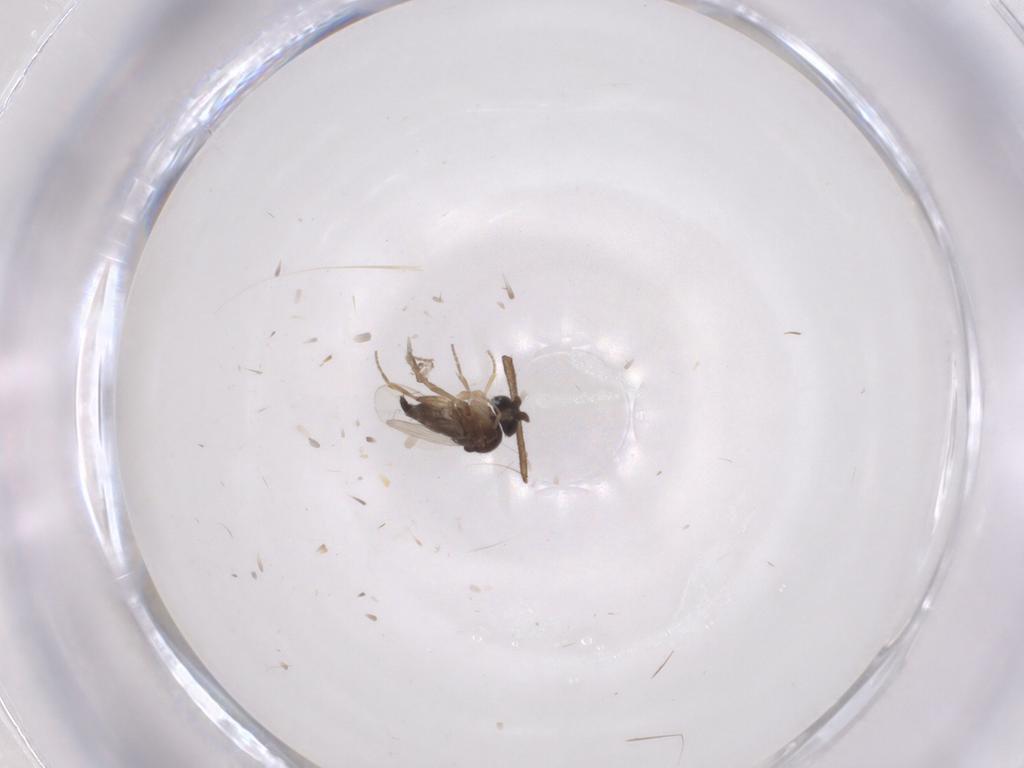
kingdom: Animalia
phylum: Arthropoda
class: Insecta
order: Diptera
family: Phoridae
